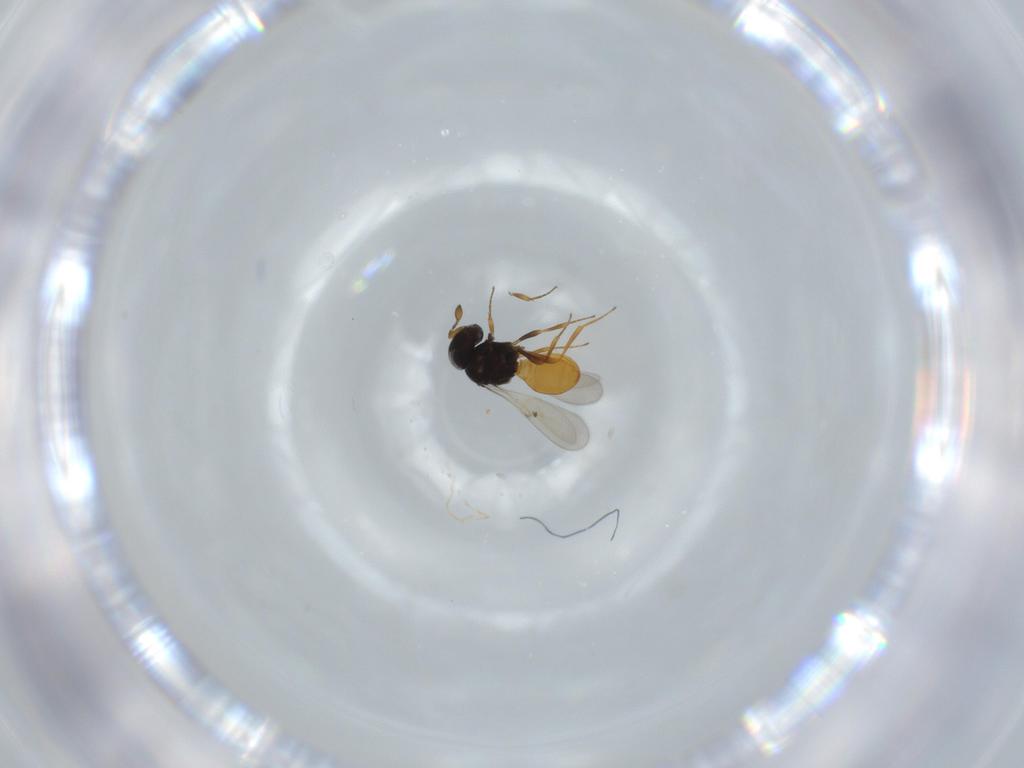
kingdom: Animalia
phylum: Arthropoda
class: Insecta
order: Hymenoptera
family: Scelionidae
